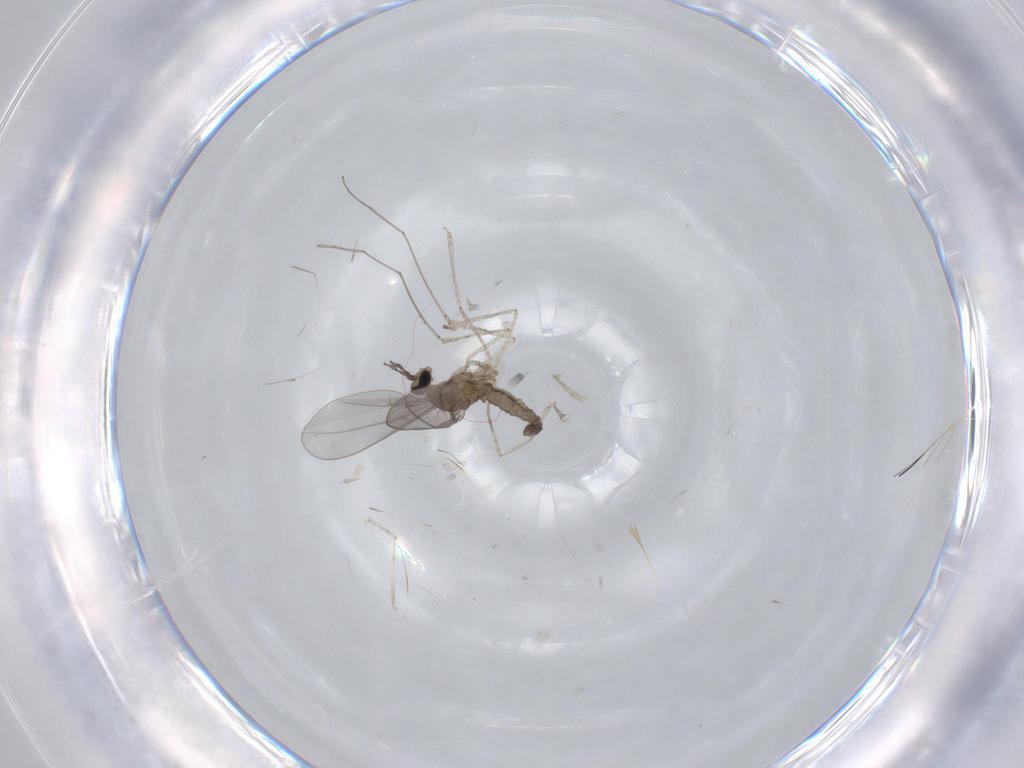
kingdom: Animalia
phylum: Arthropoda
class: Insecta
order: Diptera
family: Cecidomyiidae
